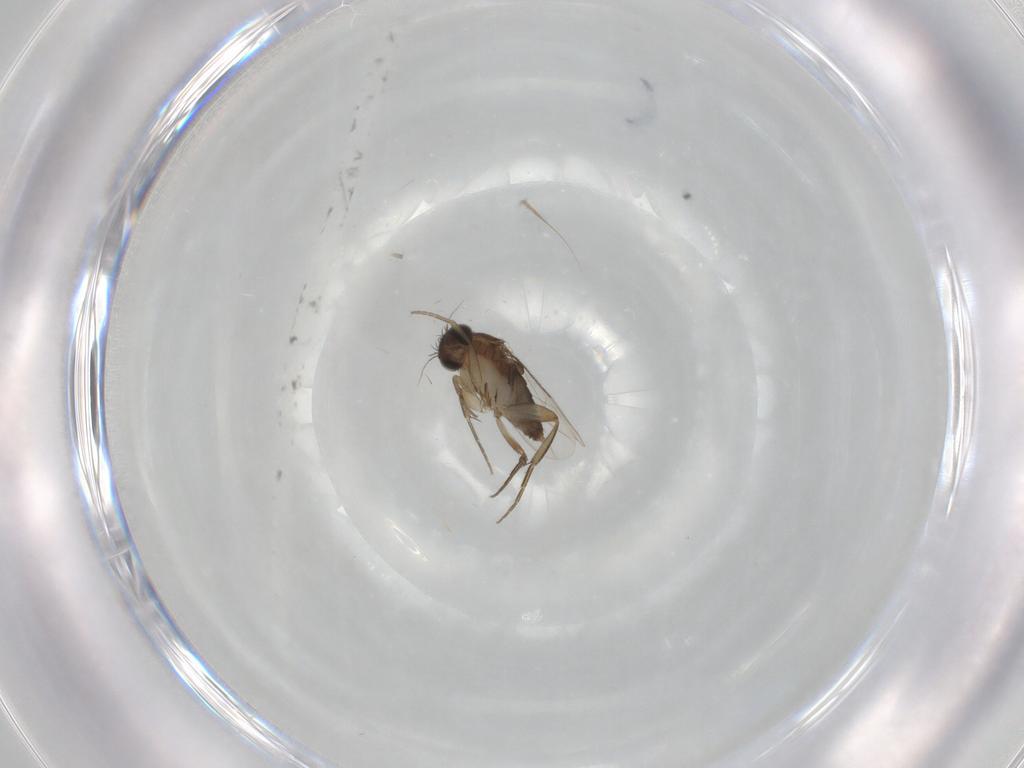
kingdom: Animalia
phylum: Arthropoda
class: Insecta
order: Diptera
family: Phoridae
